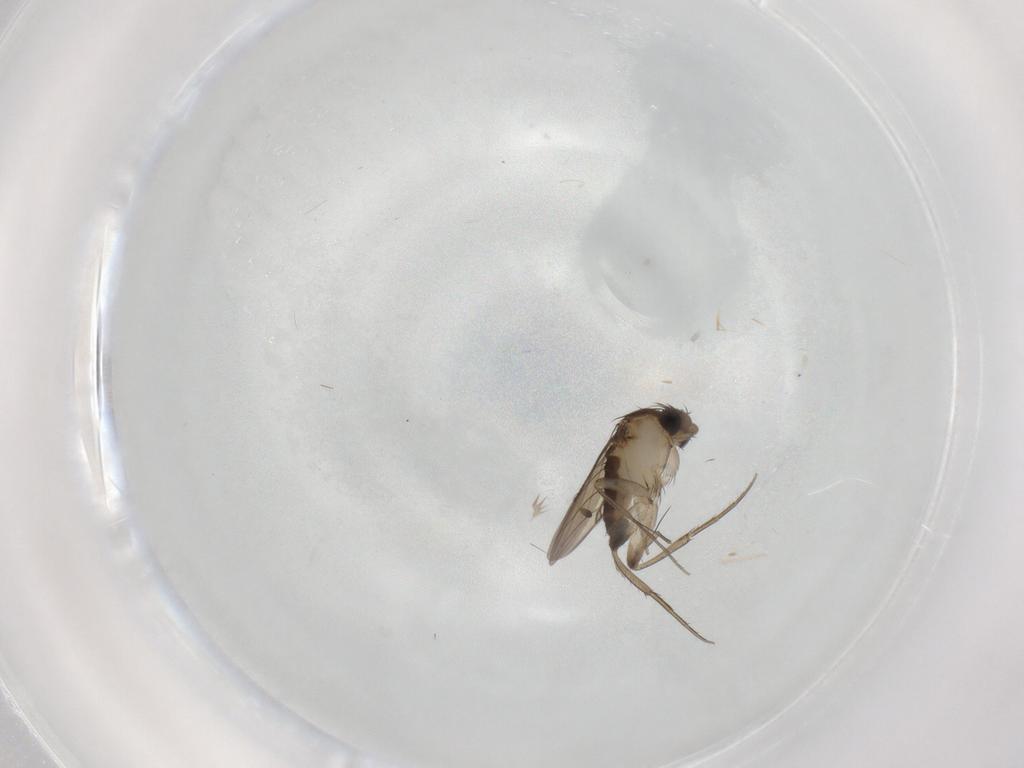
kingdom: Animalia
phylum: Arthropoda
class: Insecta
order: Diptera
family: Phoridae
